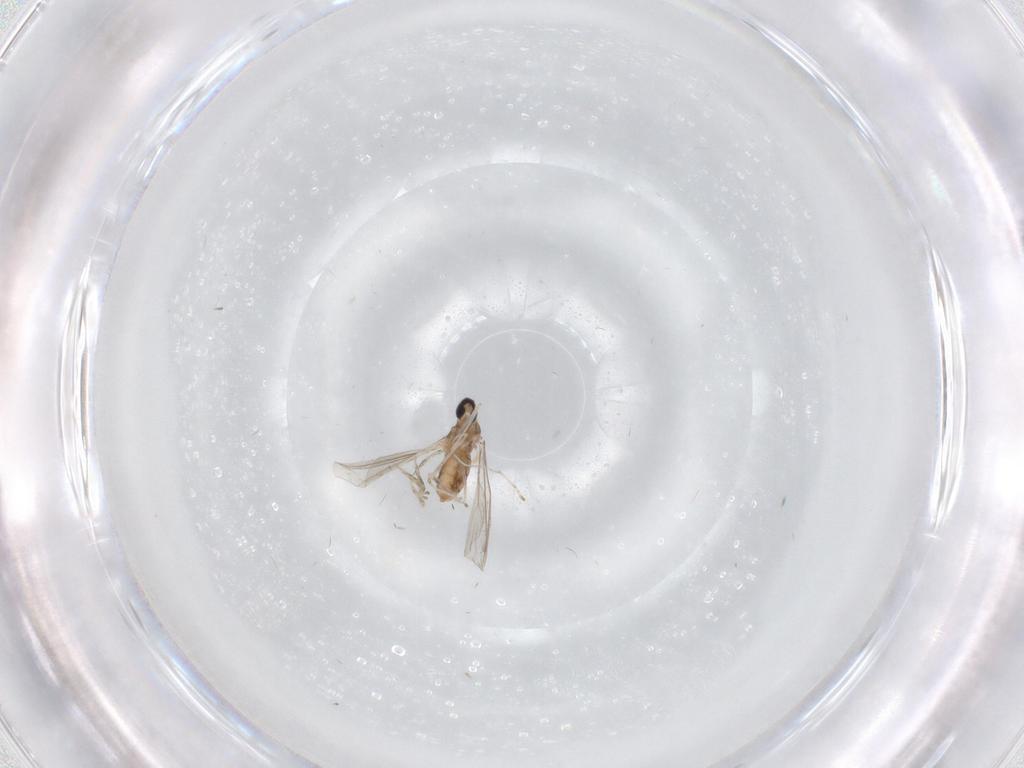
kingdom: Animalia
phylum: Arthropoda
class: Insecta
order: Diptera
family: Cecidomyiidae
